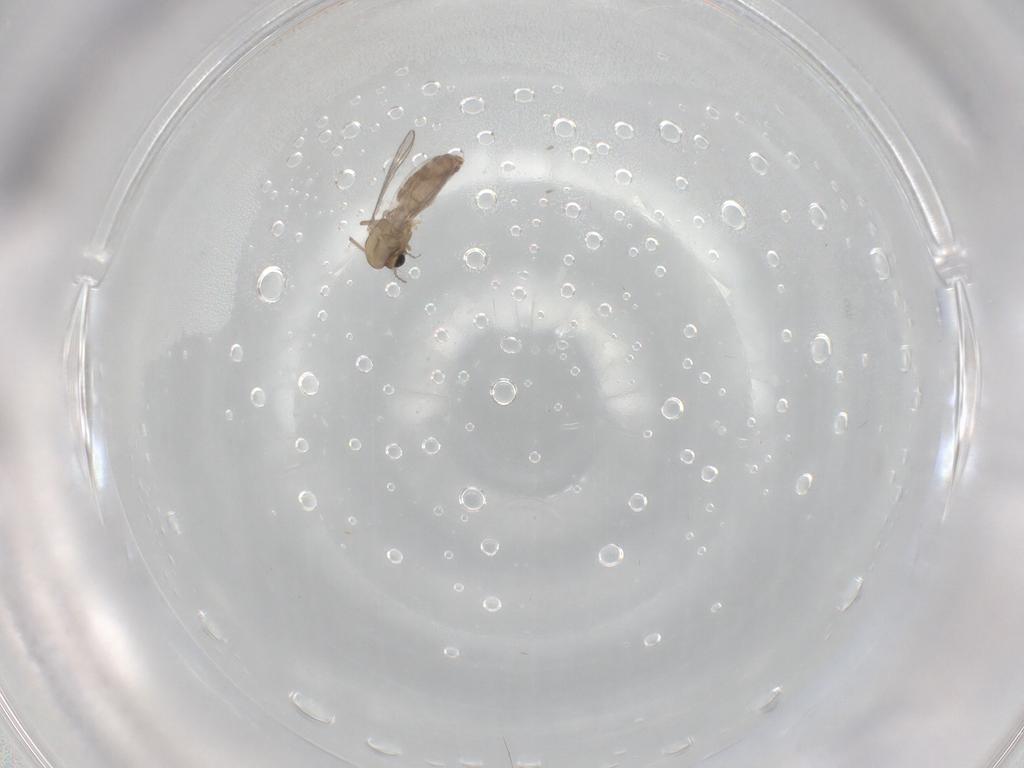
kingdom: Animalia
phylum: Arthropoda
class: Insecta
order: Diptera
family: Chironomidae
